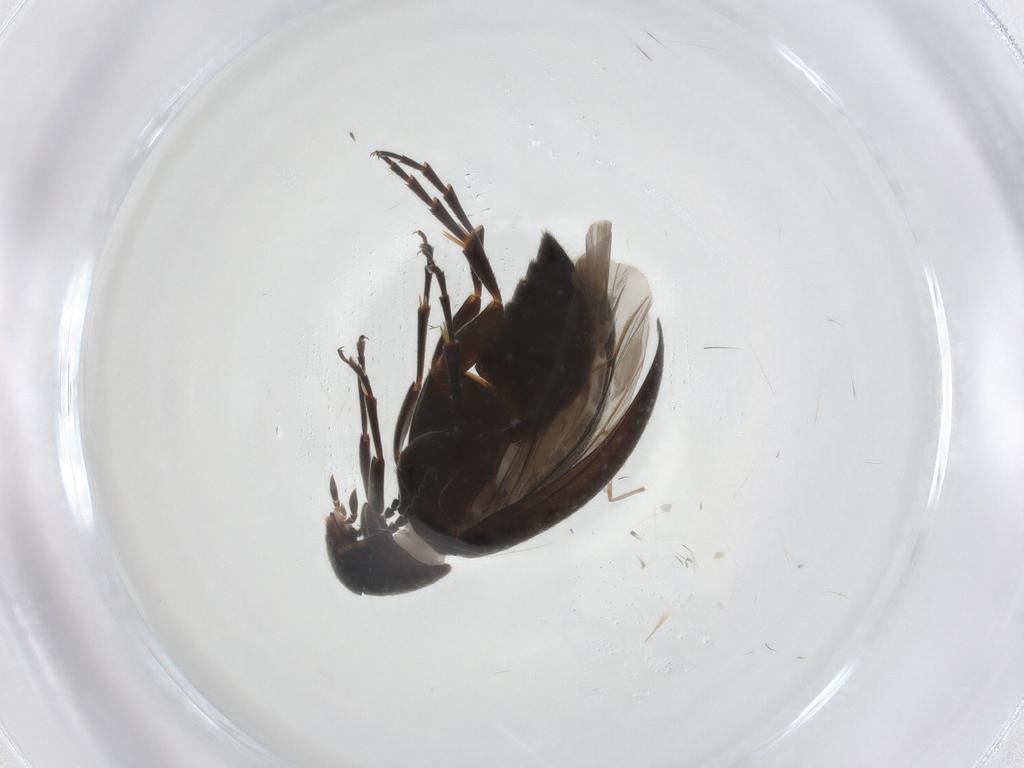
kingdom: Animalia
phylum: Arthropoda
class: Insecta
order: Coleoptera
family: Scraptiidae
